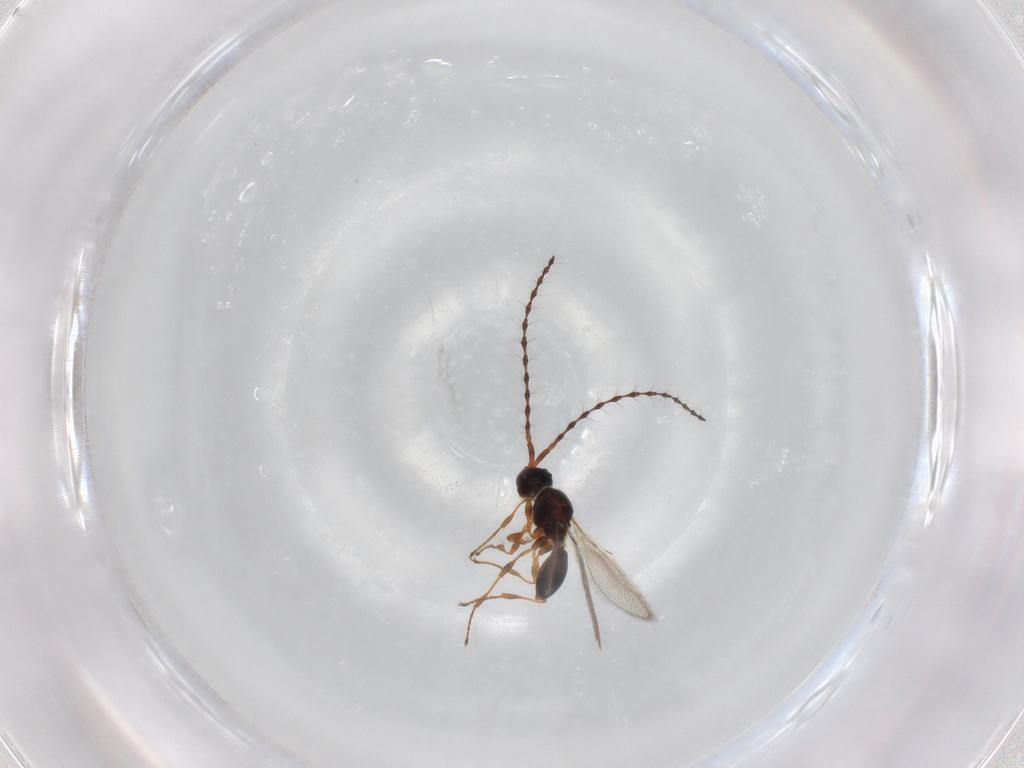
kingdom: Animalia
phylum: Arthropoda
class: Insecta
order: Hymenoptera
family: Diapriidae
